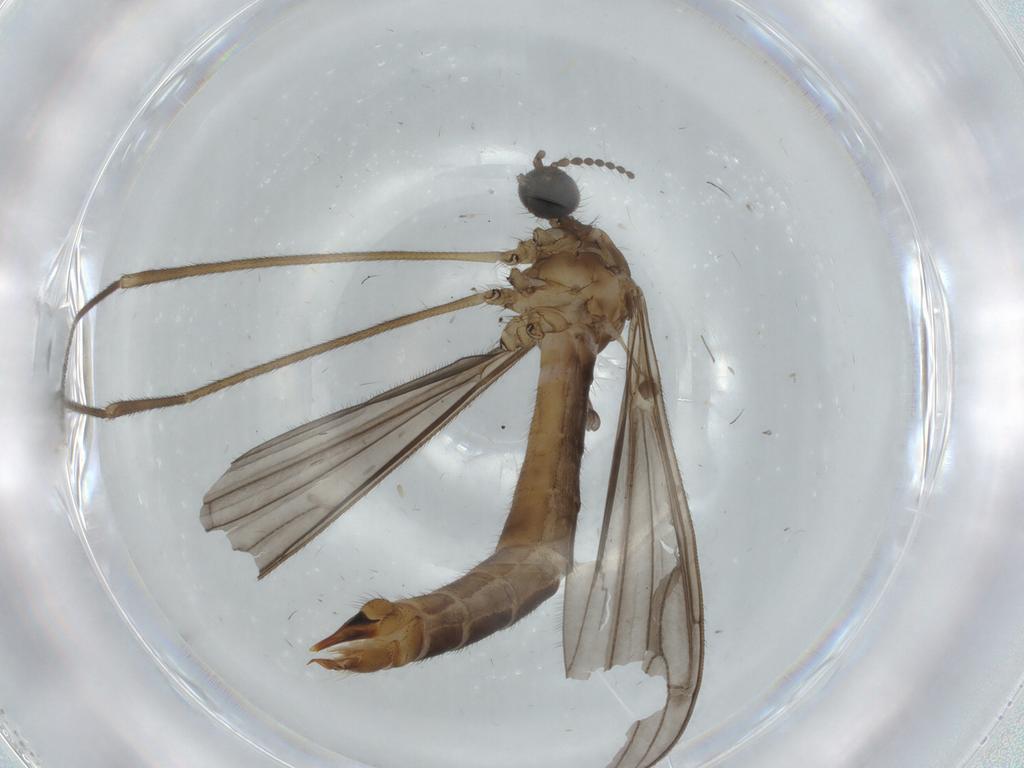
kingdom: Animalia
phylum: Arthropoda
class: Insecta
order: Diptera
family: Limoniidae
